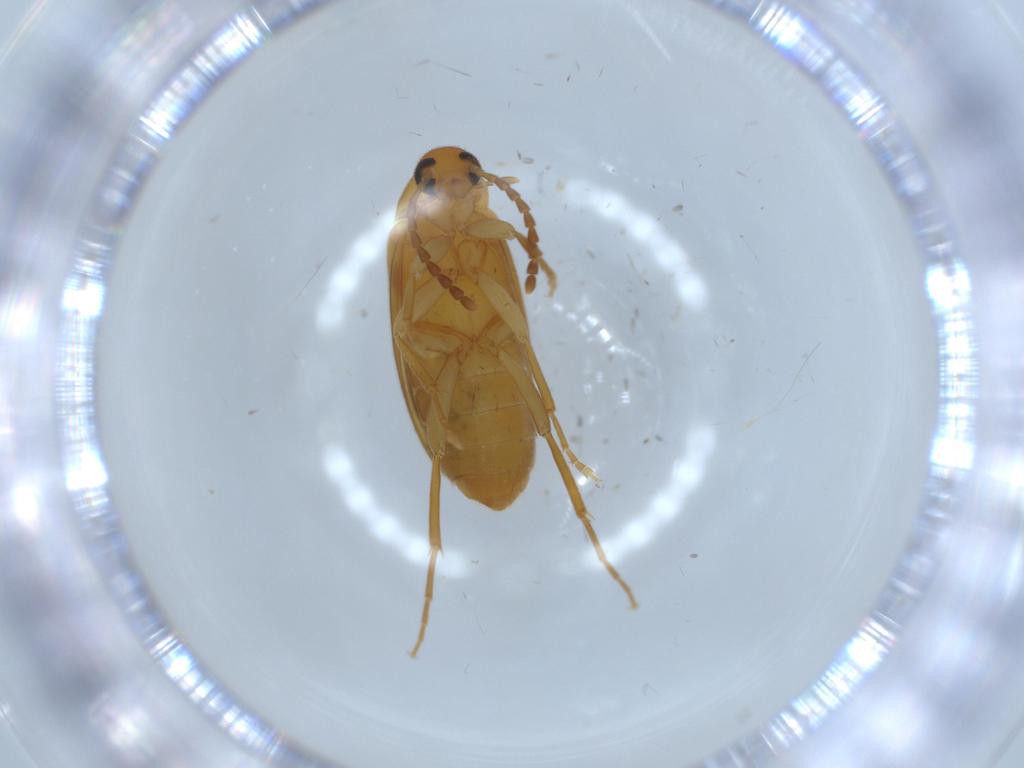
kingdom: Animalia
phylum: Arthropoda
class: Insecta
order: Coleoptera
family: Scraptiidae
